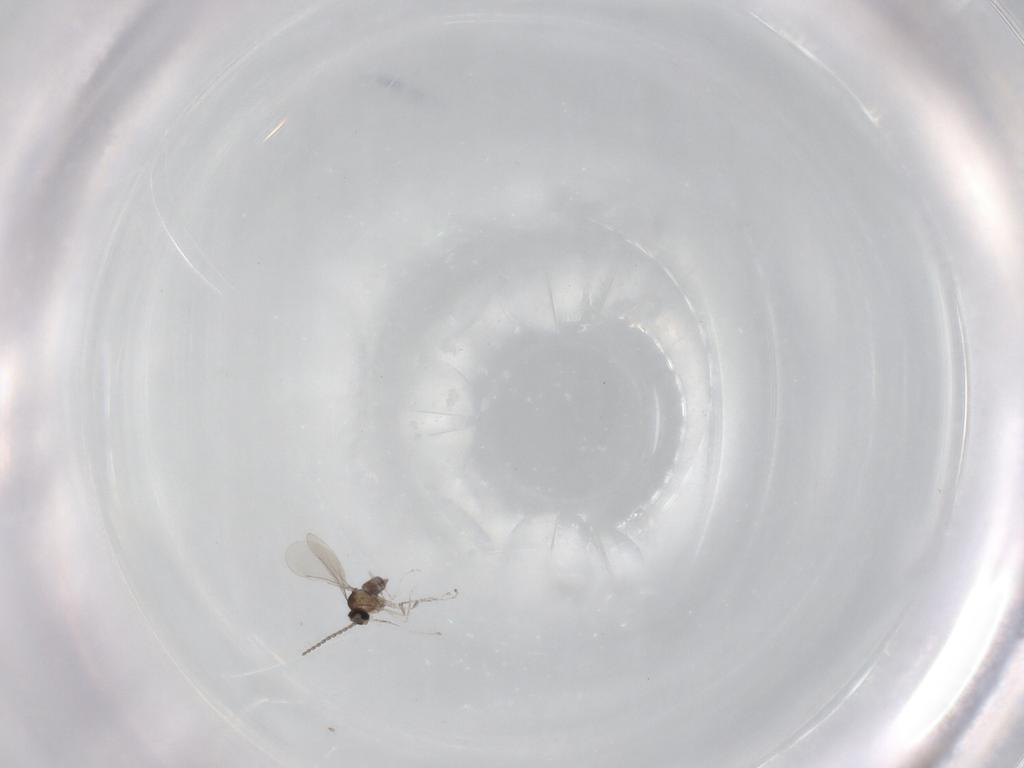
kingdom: Animalia
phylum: Arthropoda
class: Insecta
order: Diptera
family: Cecidomyiidae
